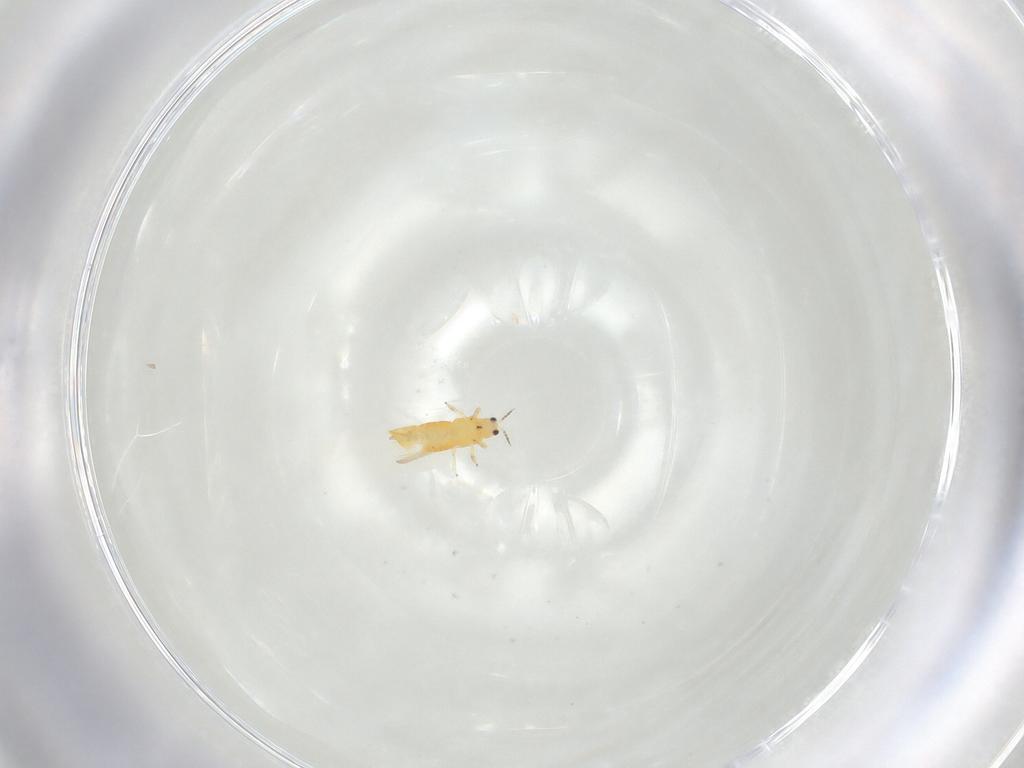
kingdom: Animalia
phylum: Arthropoda
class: Insecta
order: Thysanoptera
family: Thripidae
